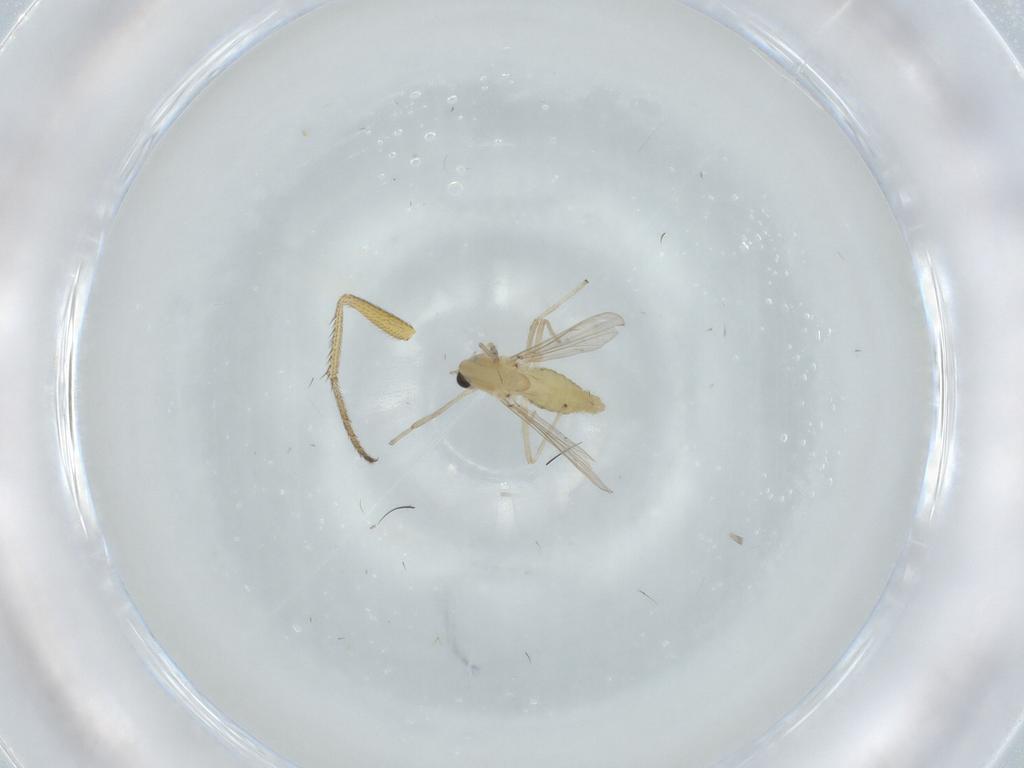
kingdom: Animalia
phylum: Arthropoda
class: Insecta
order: Diptera
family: Chironomidae
